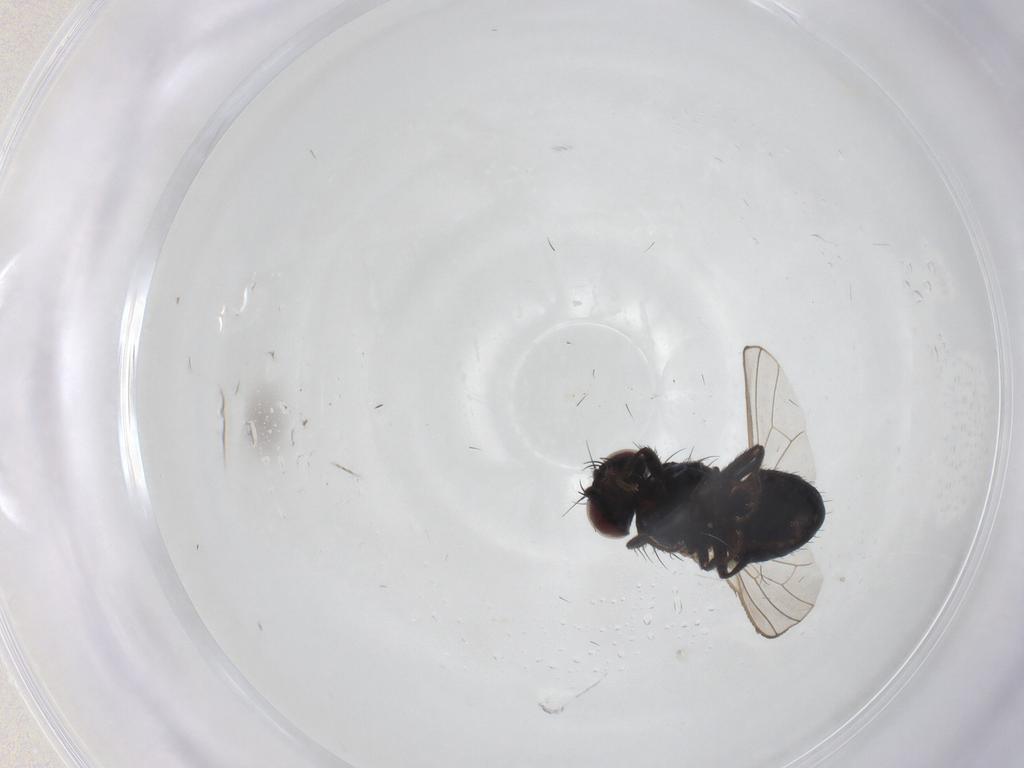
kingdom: Animalia
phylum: Arthropoda
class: Insecta
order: Diptera
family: Carnidae
